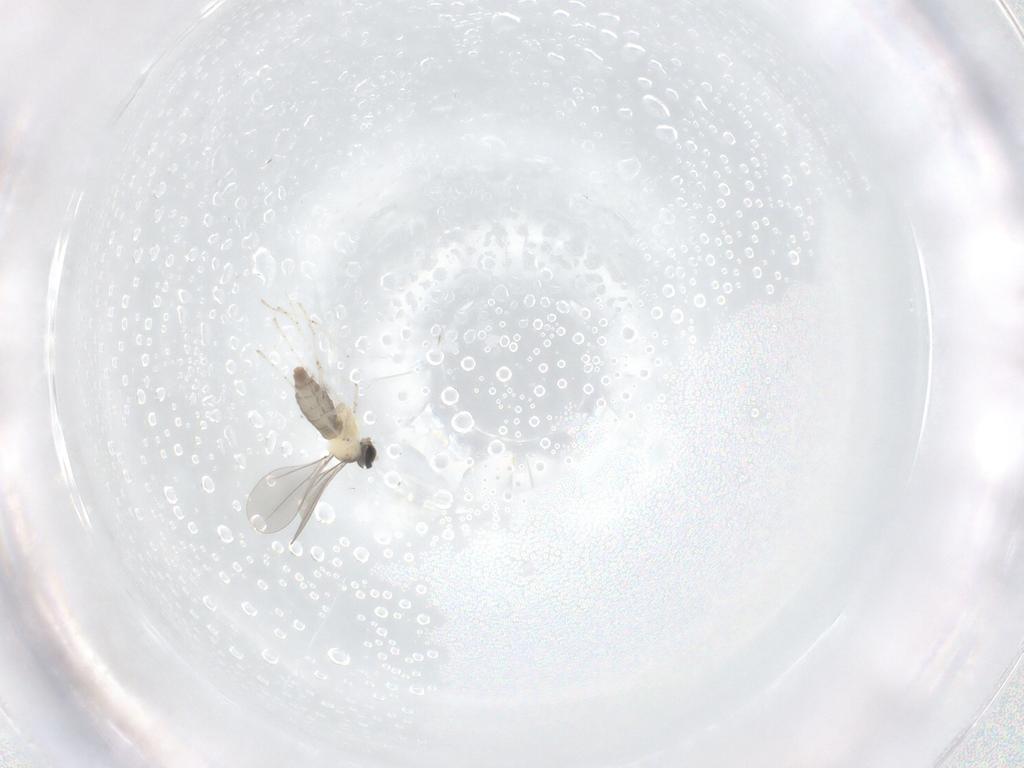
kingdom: Animalia
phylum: Arthropoda
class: Insecta
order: Diptera
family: Cecidomyiidae
